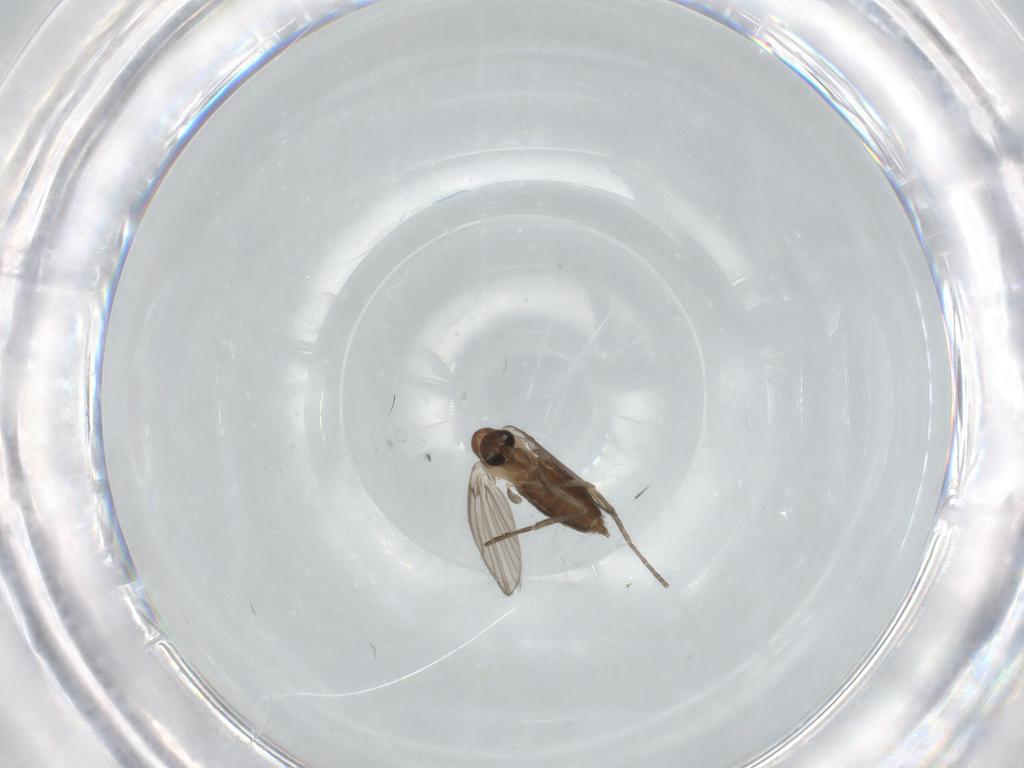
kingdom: Animalia
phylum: Arthropoda
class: Insecta
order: Diptera
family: Psychodidae
